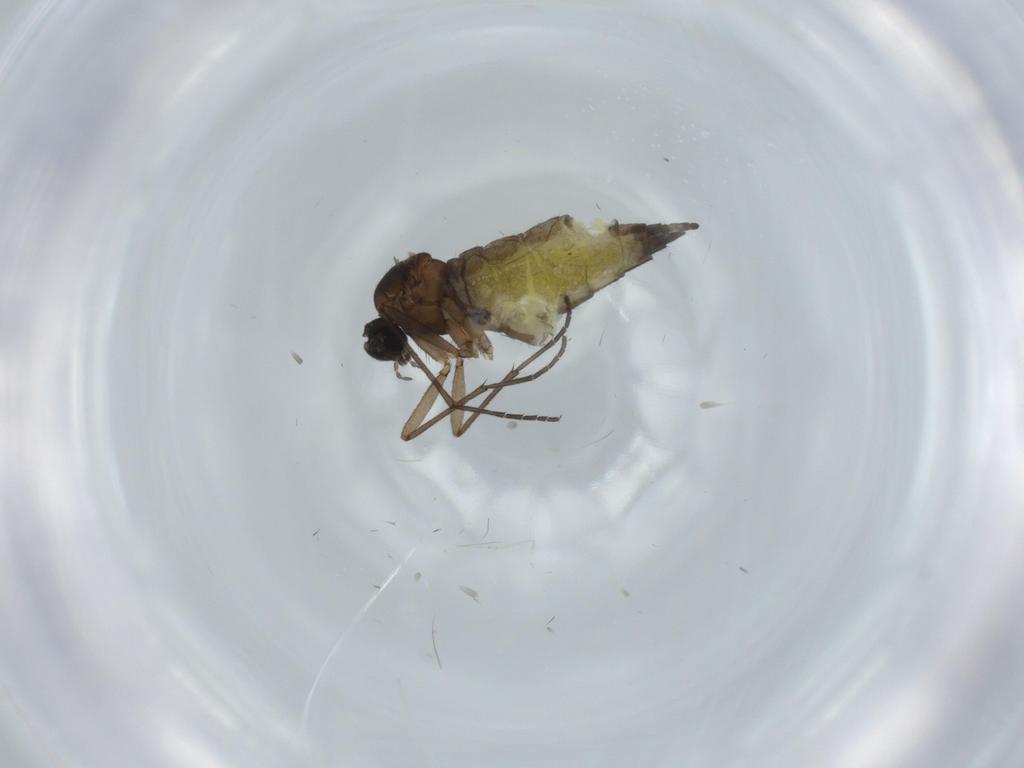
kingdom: Animalia
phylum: Arthropoda
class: Insecta
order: Diptera
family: Sciaridae
